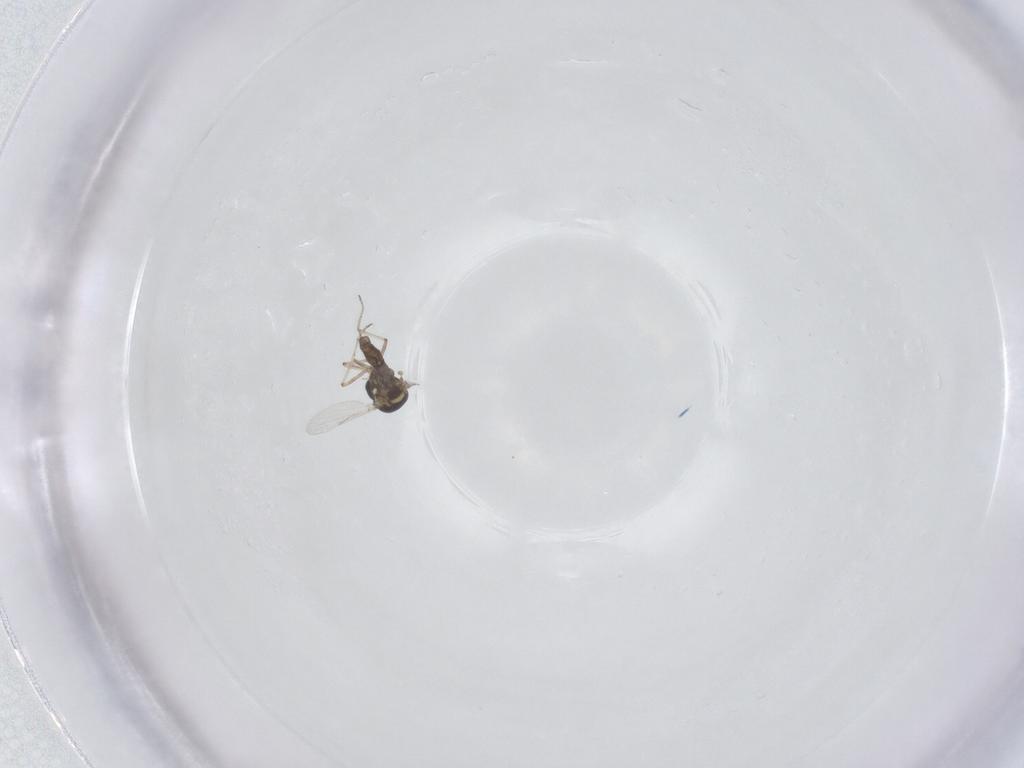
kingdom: Animalia
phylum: Arthropoda
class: Insecta
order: Diptera
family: Ceratopogonidae
